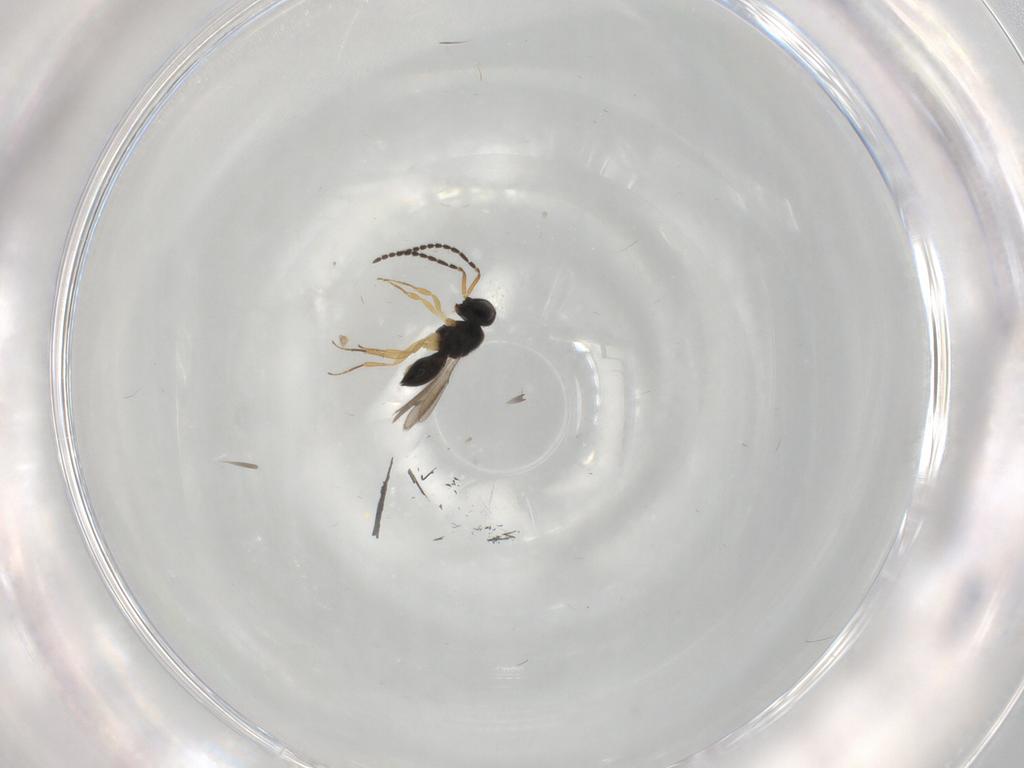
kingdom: Animalia
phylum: Arthropoda
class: Insecta
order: Hymenoptera
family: Scelionidae
